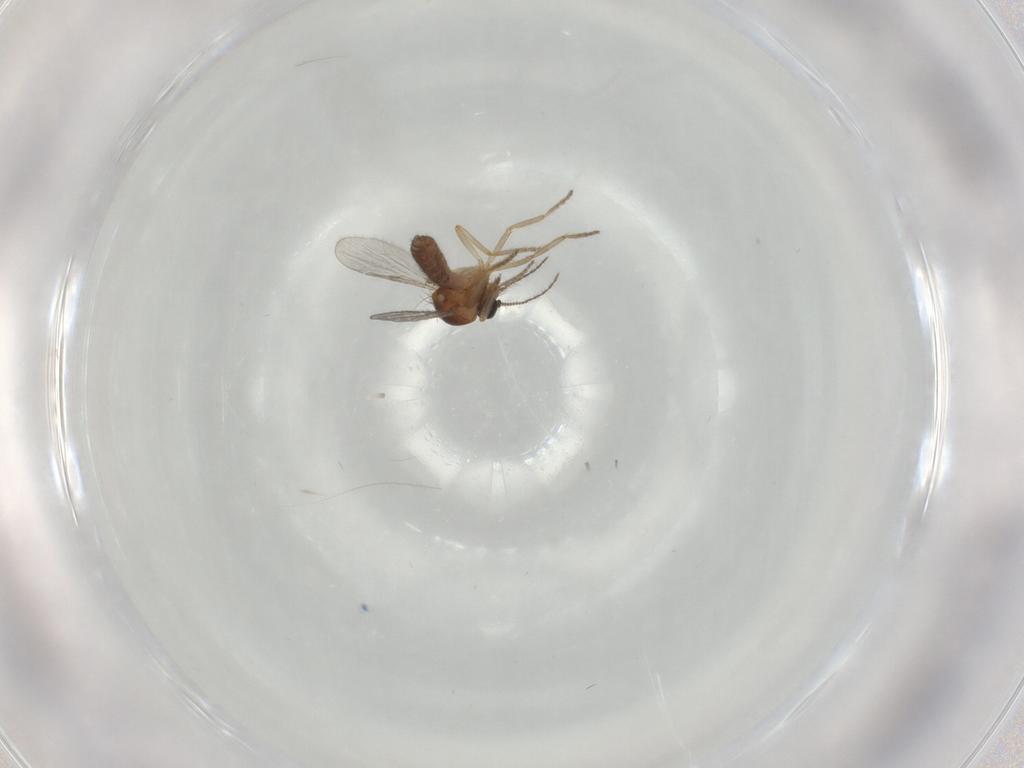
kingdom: Animalia
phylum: Arthropoda
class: Insecta
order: Diptera
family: Ceratopogonidae
